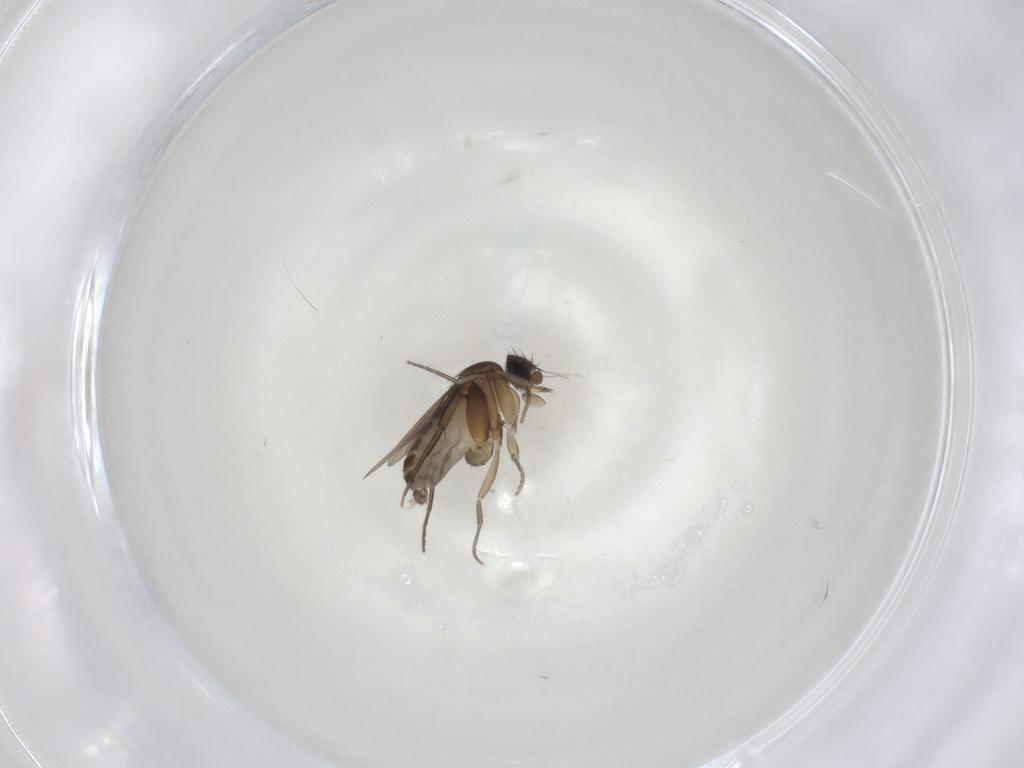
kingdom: Animalia
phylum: Arthropoda
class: Insecta
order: Diptera
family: Phoridae
